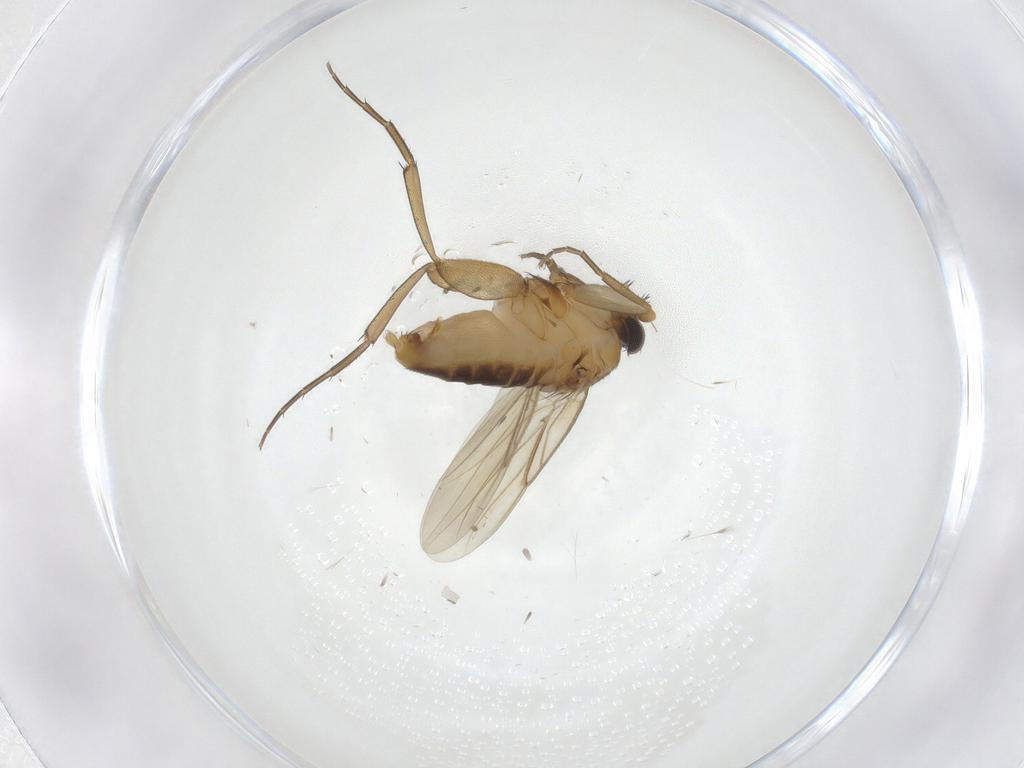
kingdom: Animalia
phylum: Arthropoda
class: Insecta
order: Diptera
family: Phoridae
